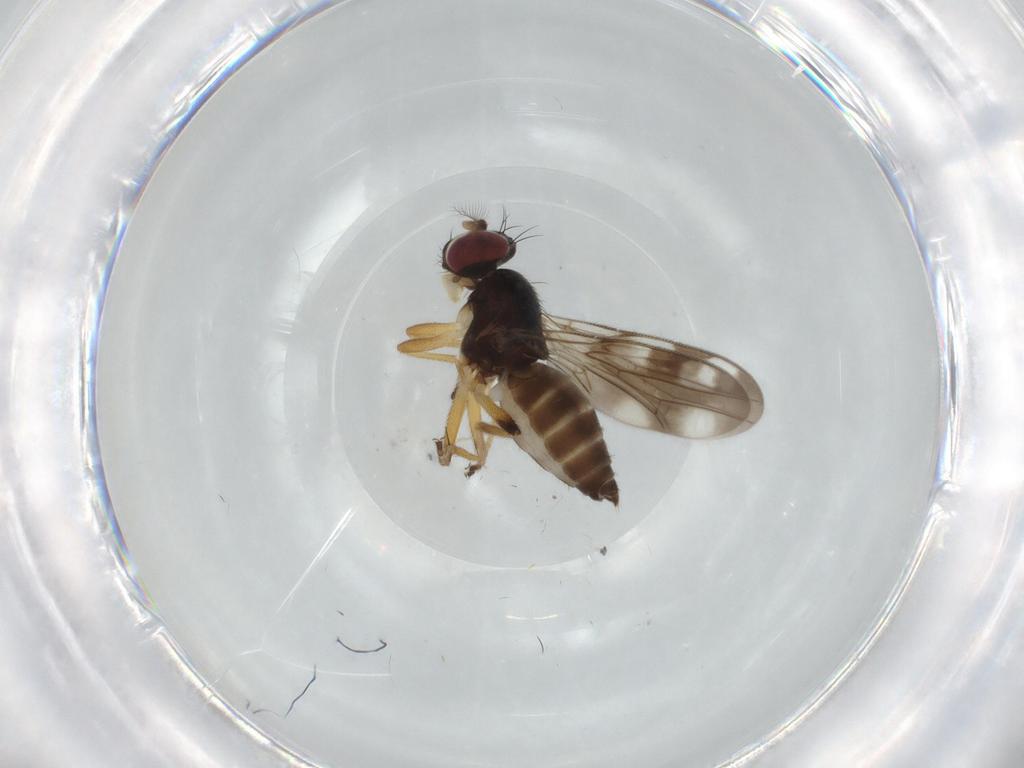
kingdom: Animalia
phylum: Arthropoda
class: Insecta
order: Diptera
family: Chironomidae
